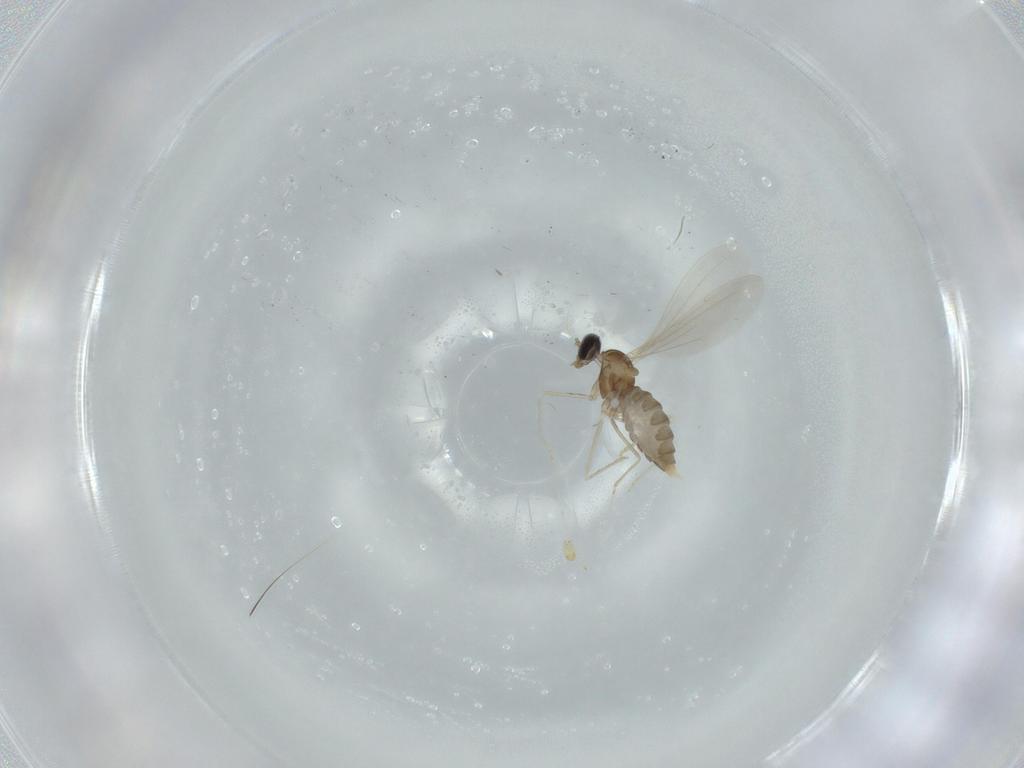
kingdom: Animalia
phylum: Arthropoda
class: Insecta
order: Diptera
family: Cecidomyiidae
